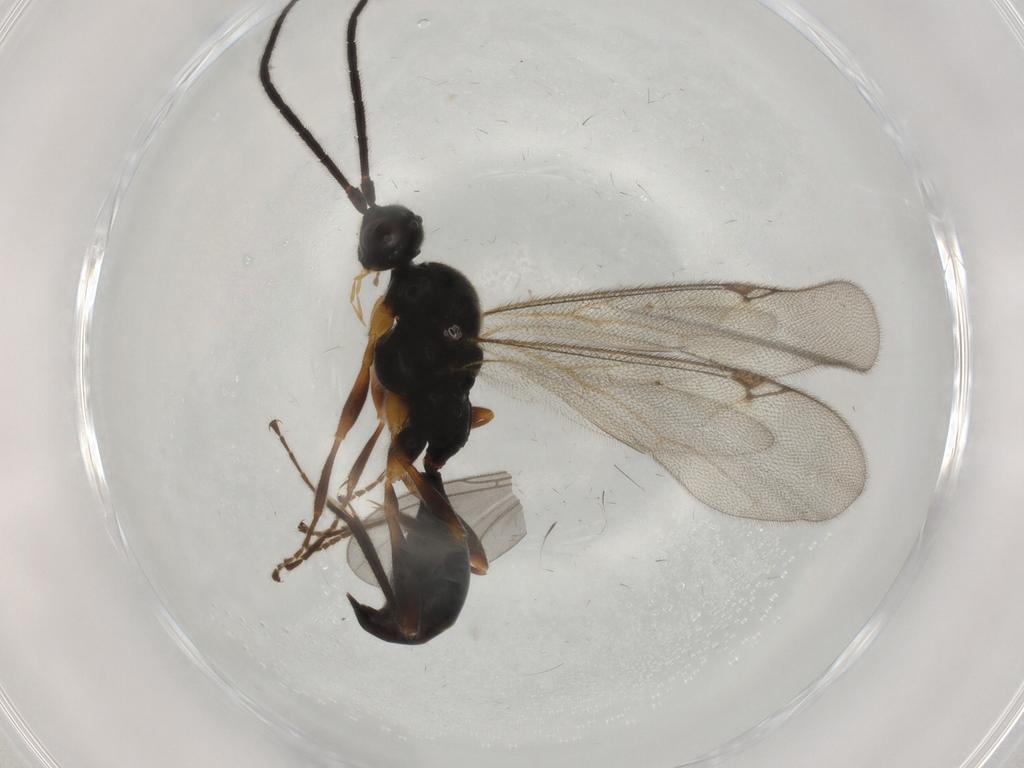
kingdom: Animalia
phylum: Arthropoda
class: Insecta
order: Hymenoptera
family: Proctotrupidae
